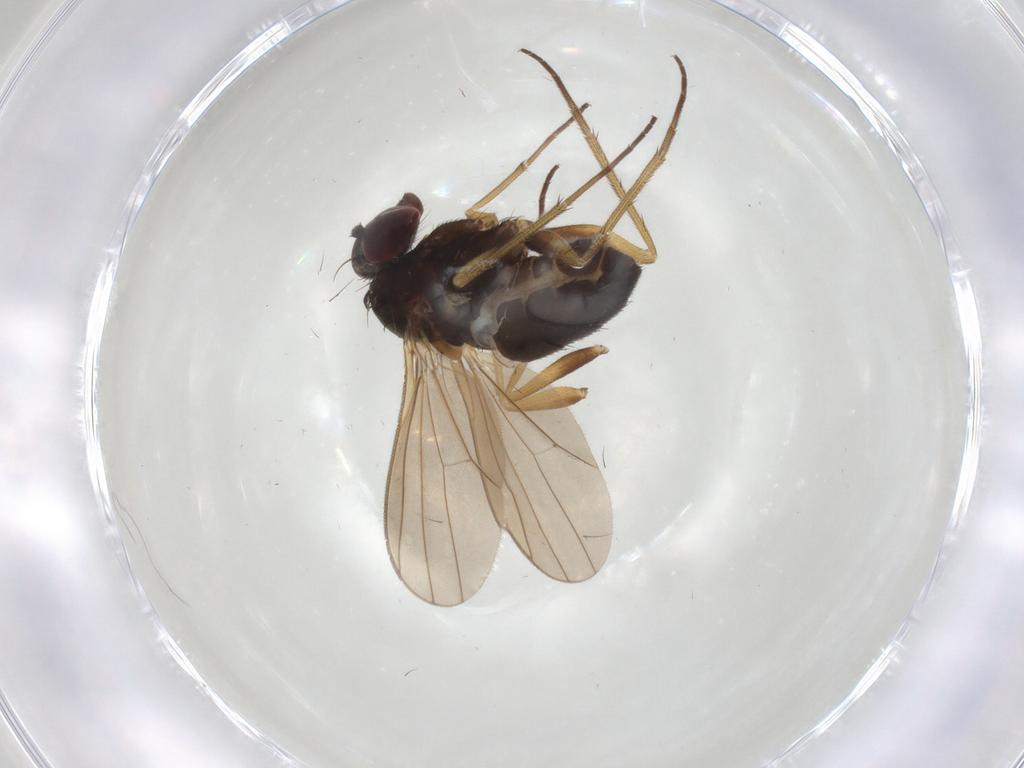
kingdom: Animalia
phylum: Arthropoda
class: Insecta
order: Diptera
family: Dolichopodidae
